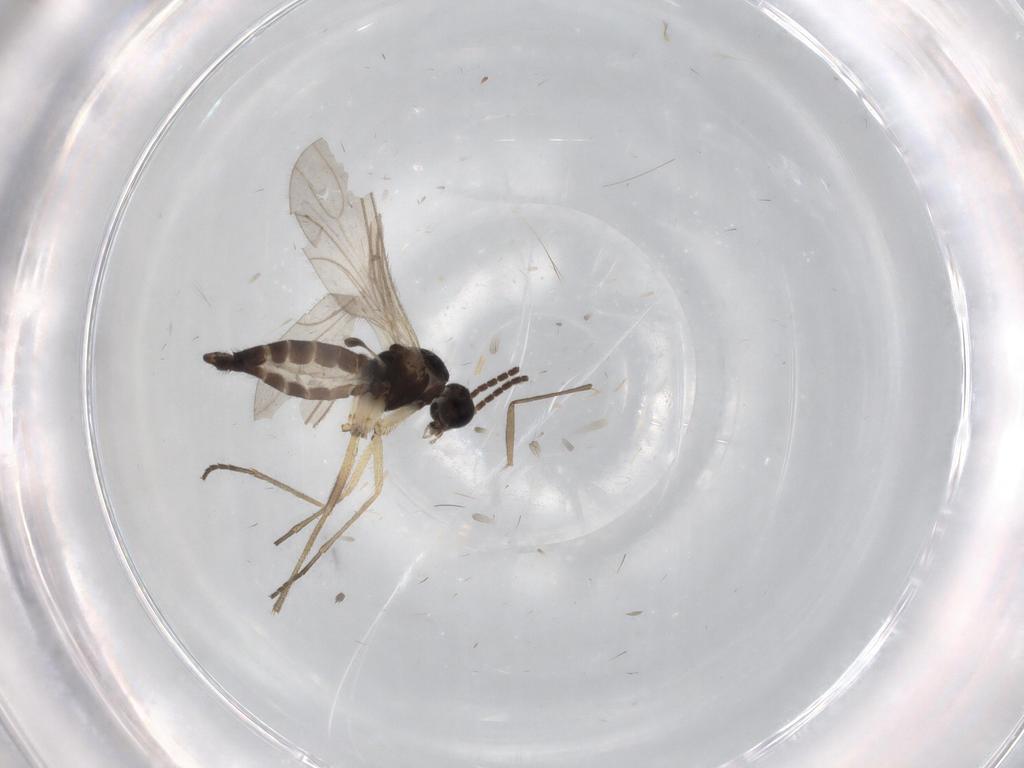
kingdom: Animalia
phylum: Arthropoda
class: Insecta
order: Diptera
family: Sciaridae
